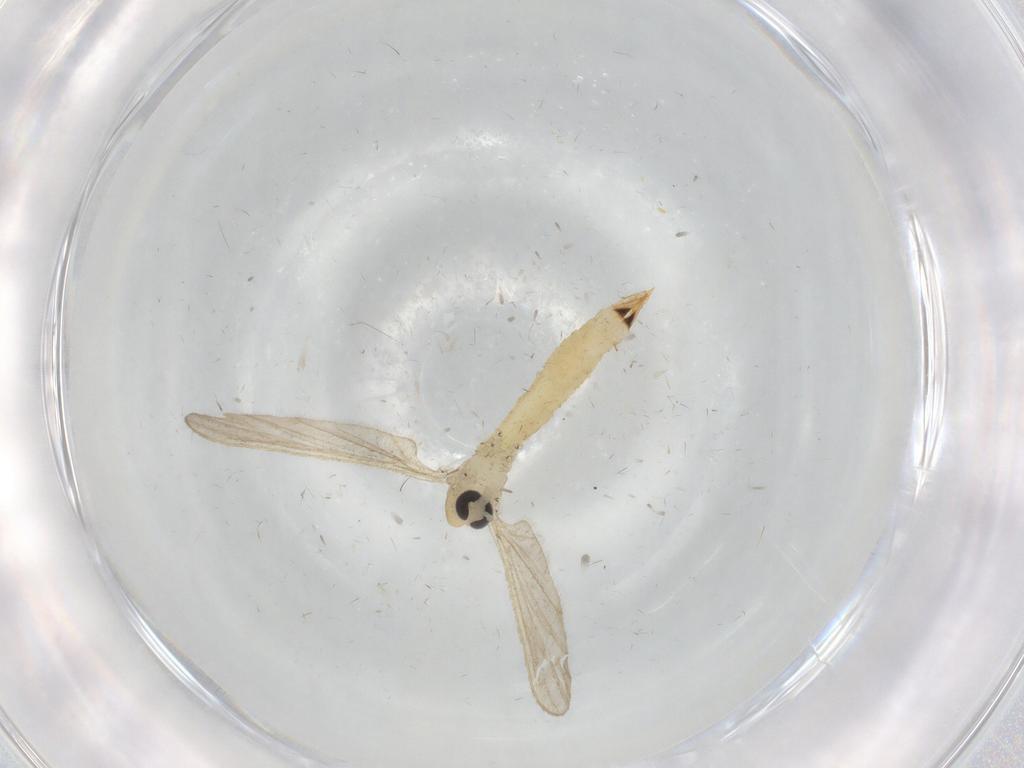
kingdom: Animalia
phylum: Arthropoda
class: Insecta
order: Diptera
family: Limoniidae
